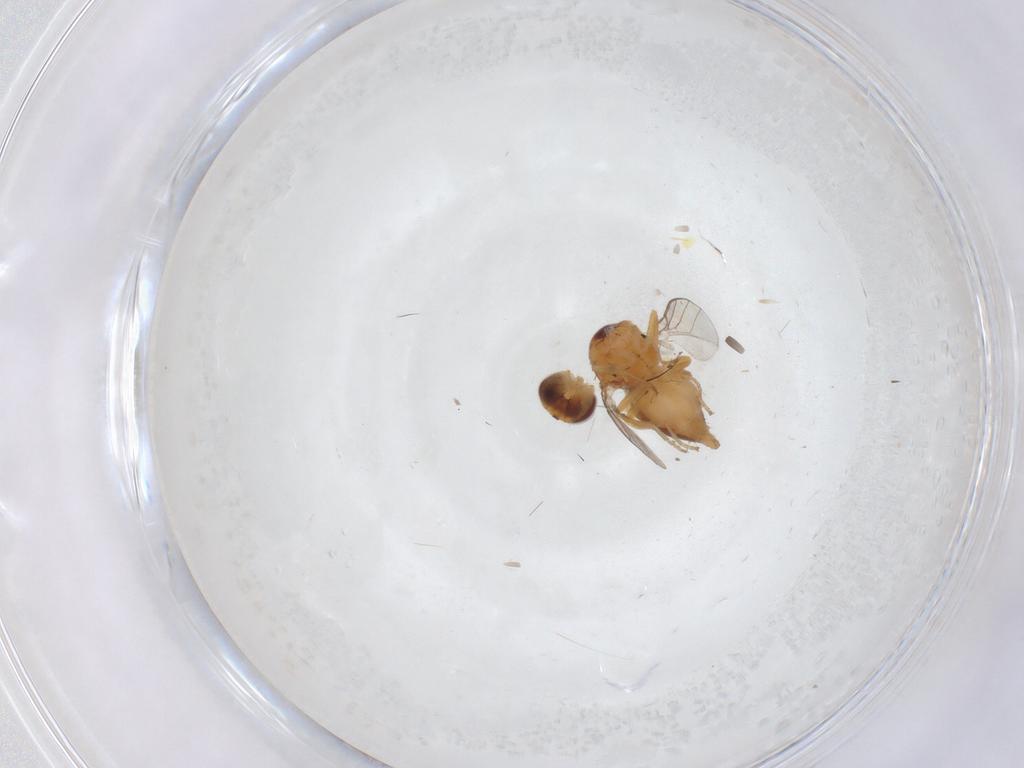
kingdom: Animalia
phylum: Arthropoda
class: Insecta
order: Diptera
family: Chloropidae
